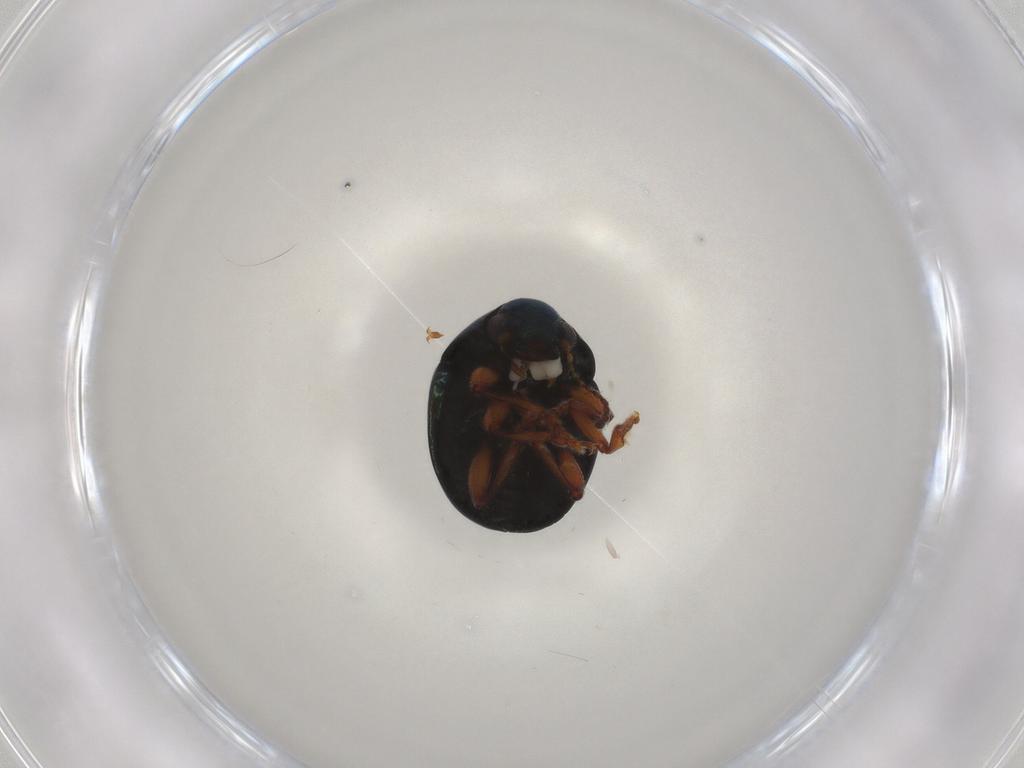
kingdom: Animalia
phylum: Arthropoda
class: Insecta
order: Coleoptera
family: Chrysomelidae
